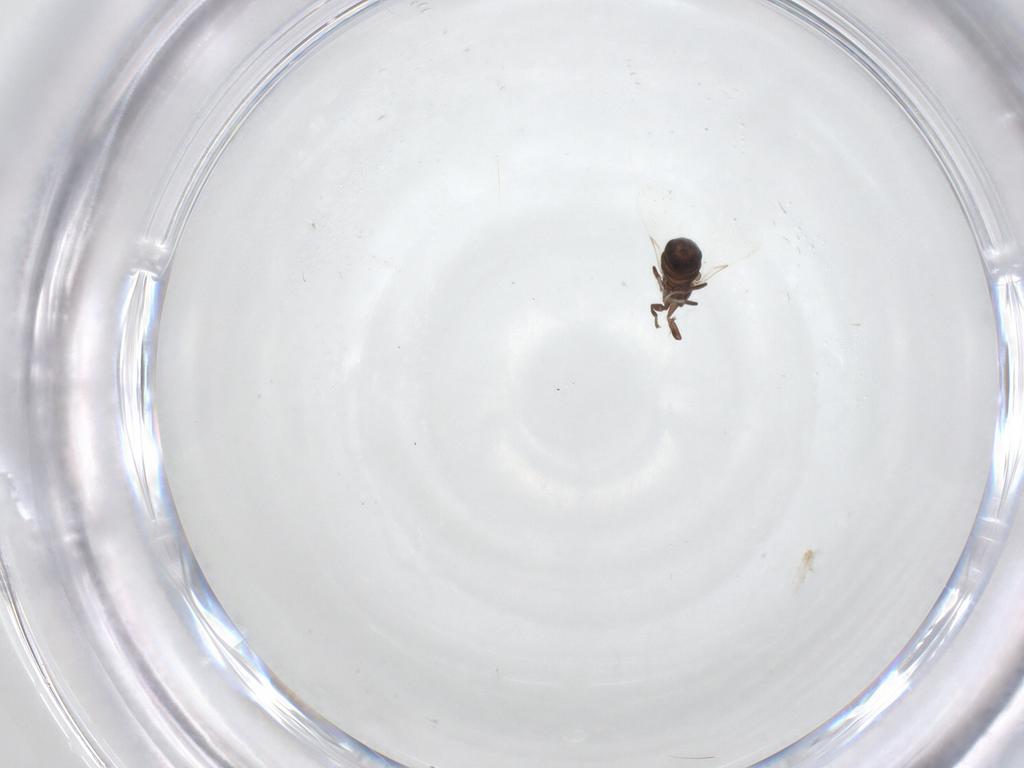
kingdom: Animalia
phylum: Arthropoda
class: Insecta
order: Diptera
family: Scatopsidae
